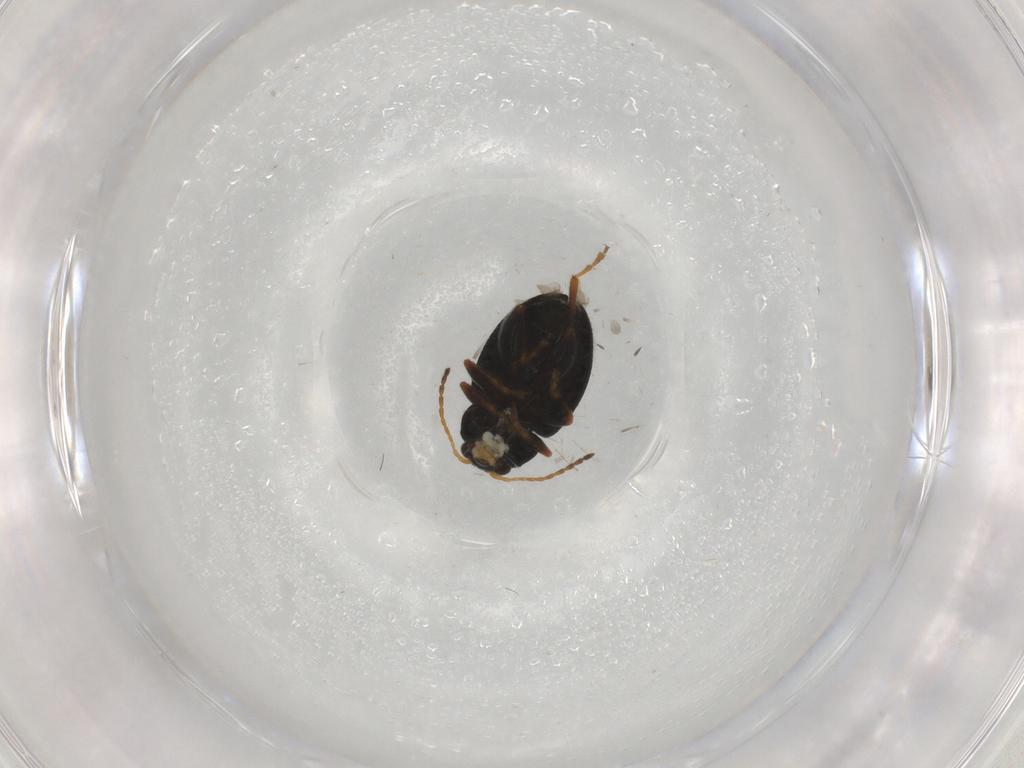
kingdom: Animalia
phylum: Arthropoda
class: Insecta
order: Coleoptera
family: Chrysomelidae
